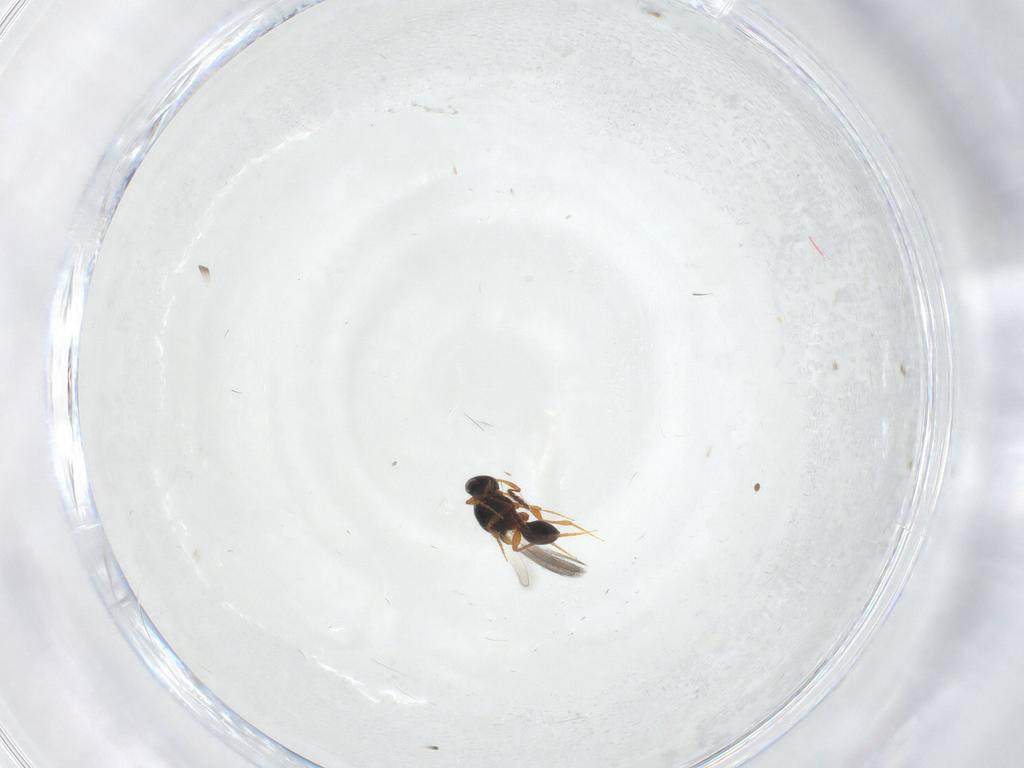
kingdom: Animalia
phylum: Arthropoda
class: Insecta
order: Hymenoptera
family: Platygastridae
